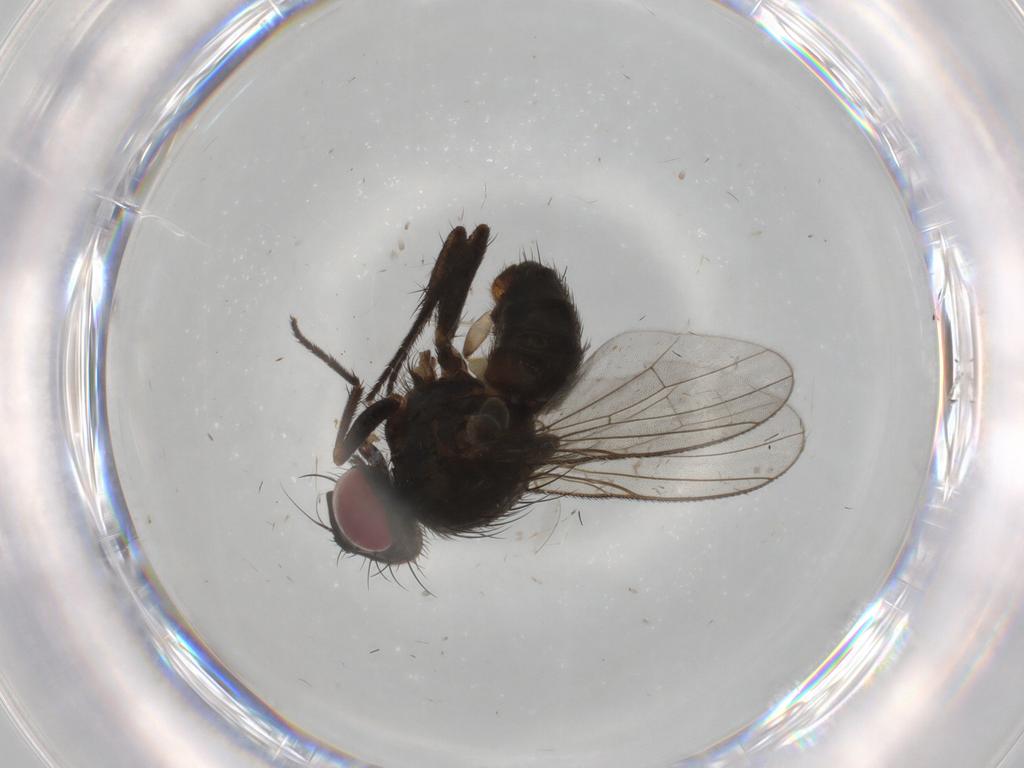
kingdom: Animalia
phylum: Arthropoda
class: Insecta
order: Diptera
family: Muscidae
